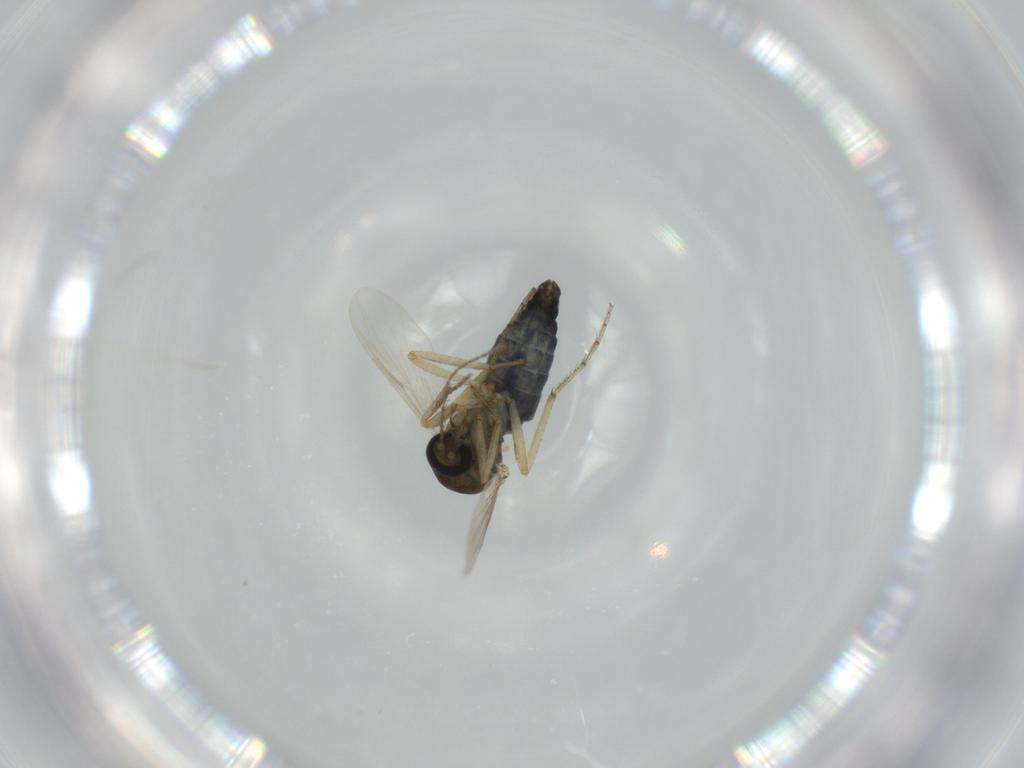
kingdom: Animalia
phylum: Arthropoda
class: Insecta
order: Diptera
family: Ceratopogonidae
